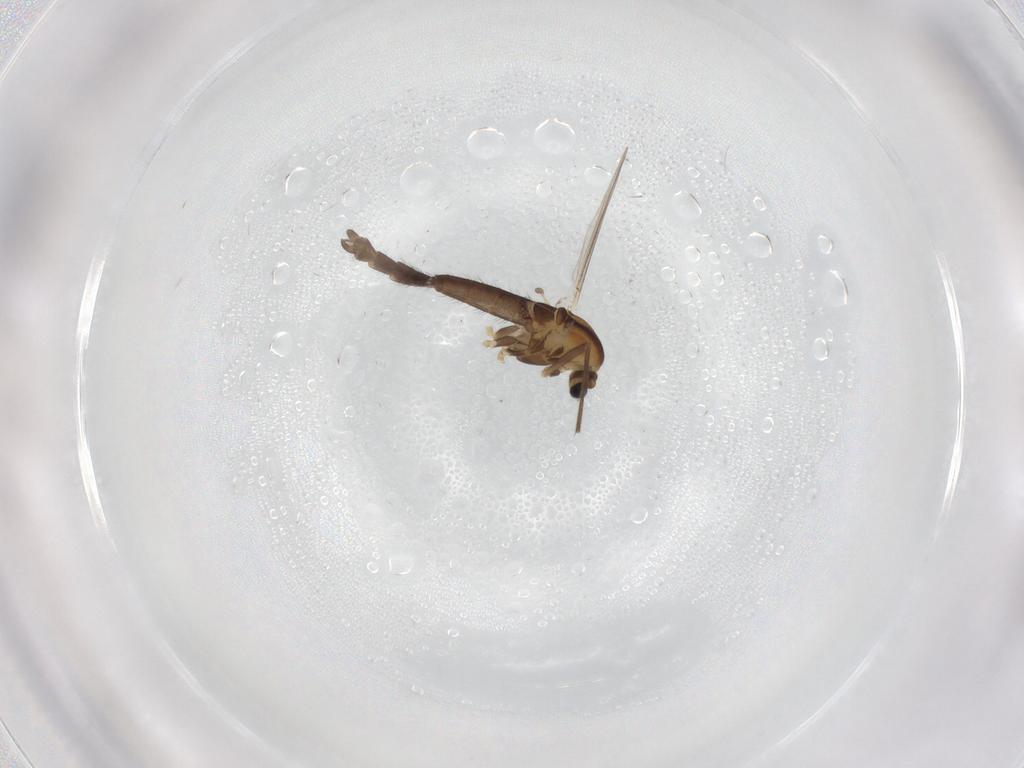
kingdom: Animalia
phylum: Arthropoda
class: Insecta
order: Diptera
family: Chironomidae
